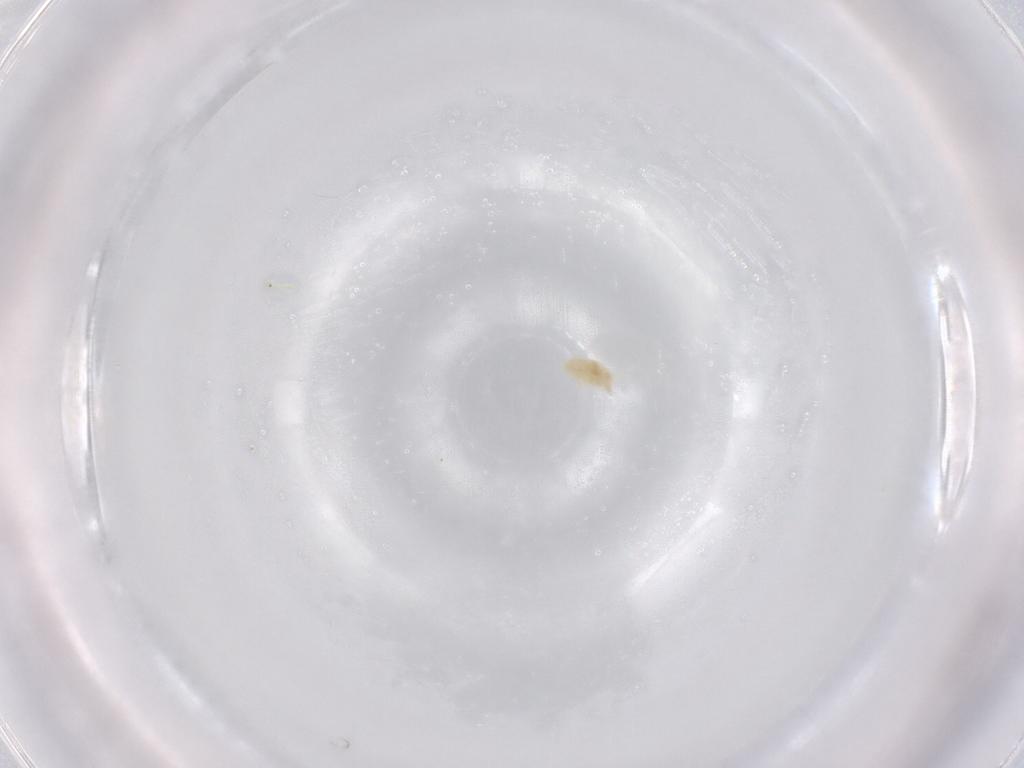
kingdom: Animalia
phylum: Arthropoda
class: Arachnida
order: Trombidiformes
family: Eupodidae
